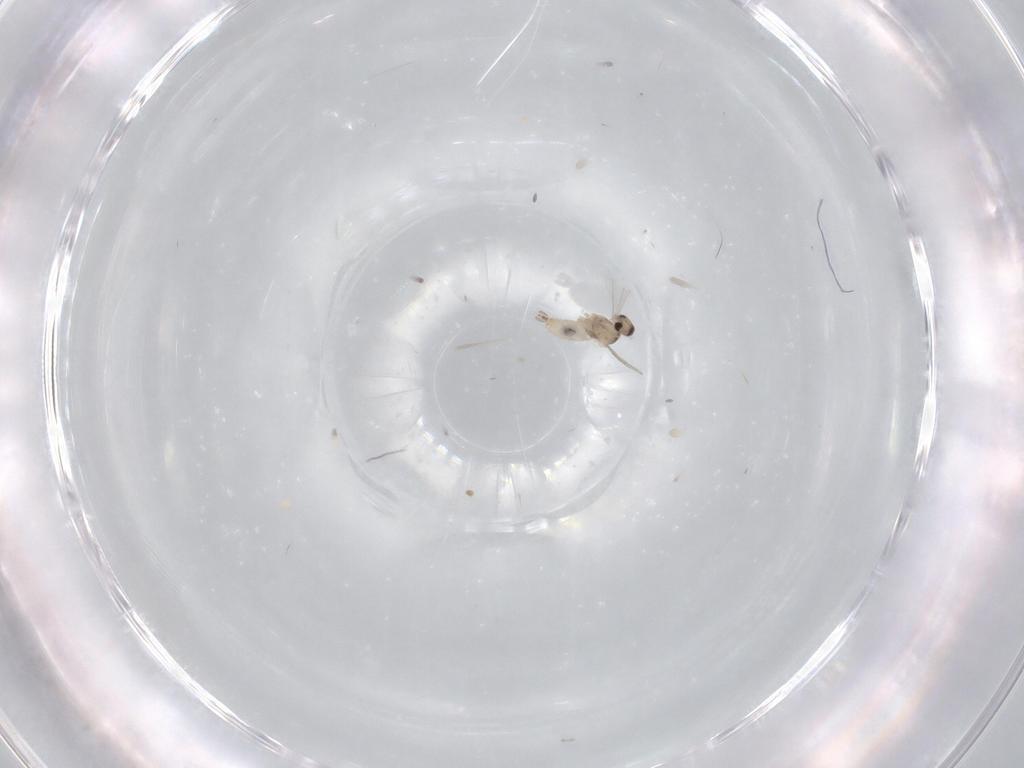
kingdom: Animalia
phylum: Arthropoda
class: Insecta
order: Diptera
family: Cecidomyiidae
